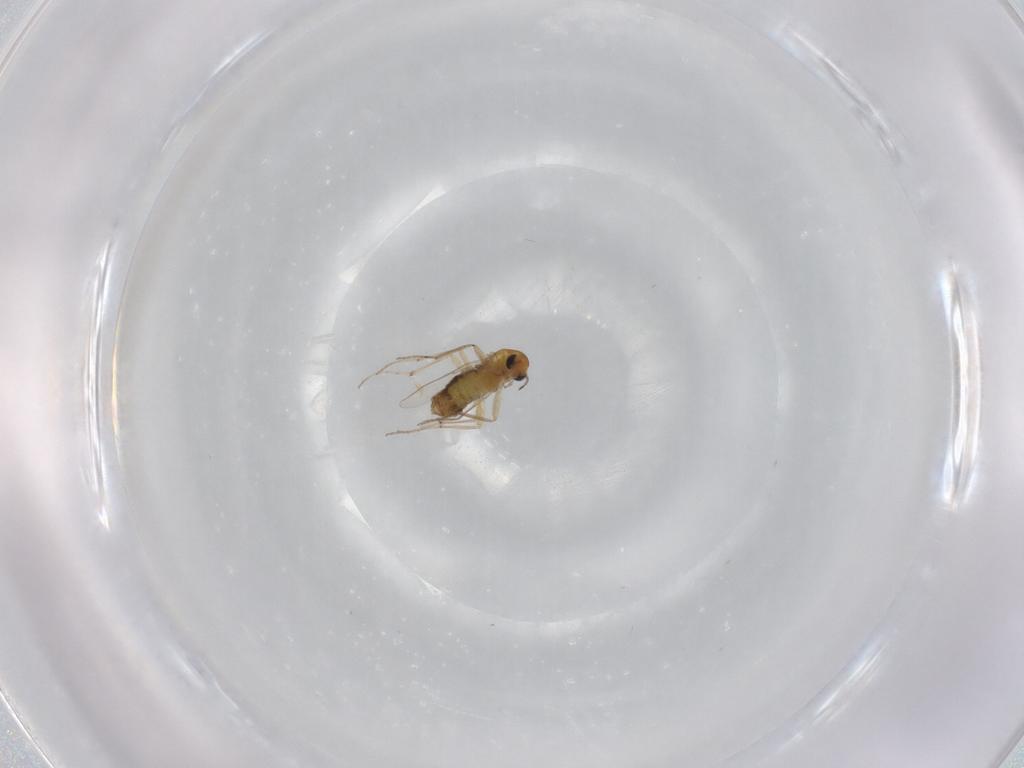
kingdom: Animalia
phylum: Arthropoda
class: Insecta
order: Diptera
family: Chironomidae
